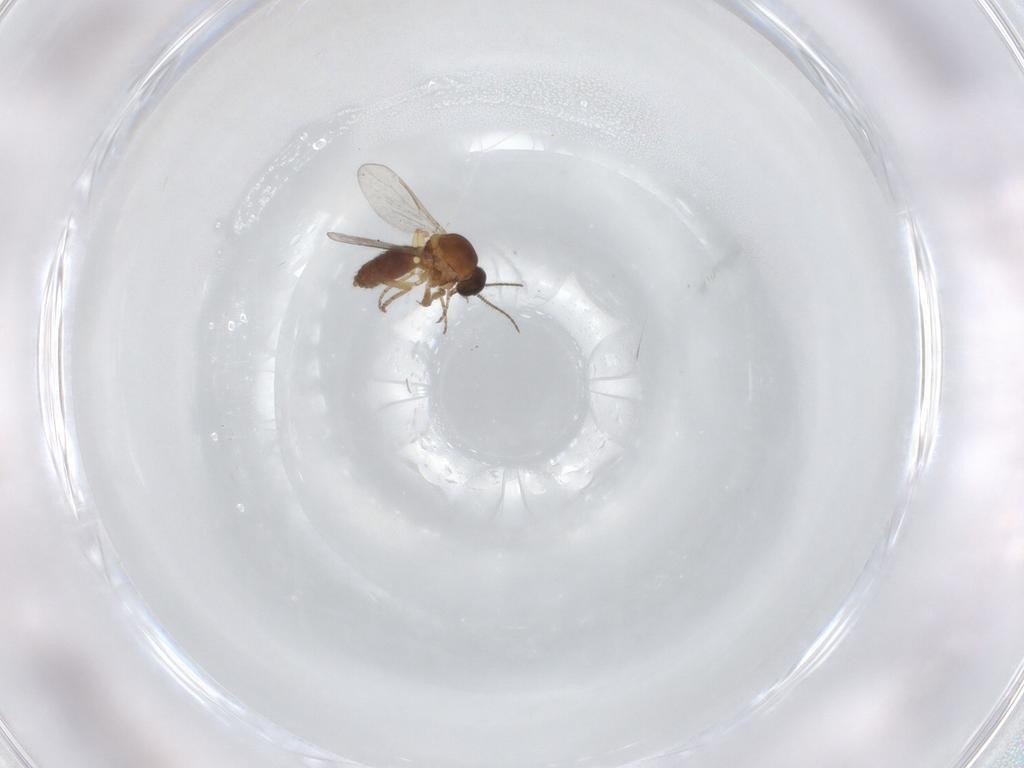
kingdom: Animalia
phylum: Arthropoda
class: Insecta
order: Diptera
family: Ceratopogonidae
